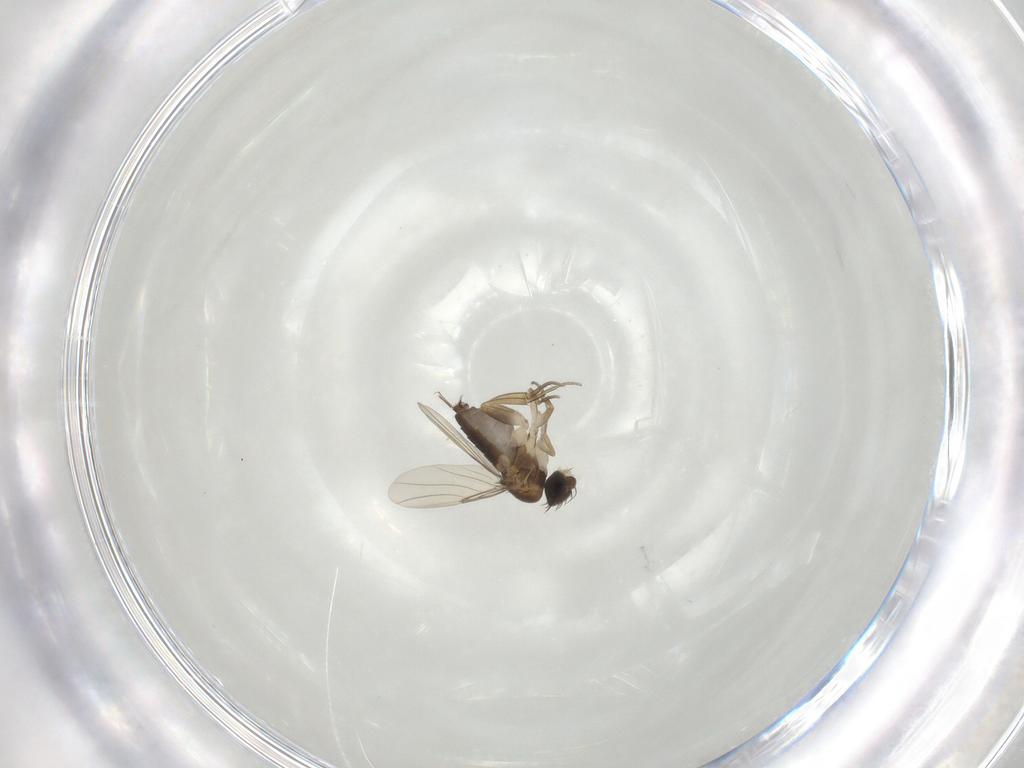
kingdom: Animalia
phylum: Arthropoda
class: Insecta
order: Diptera
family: Phoridae
